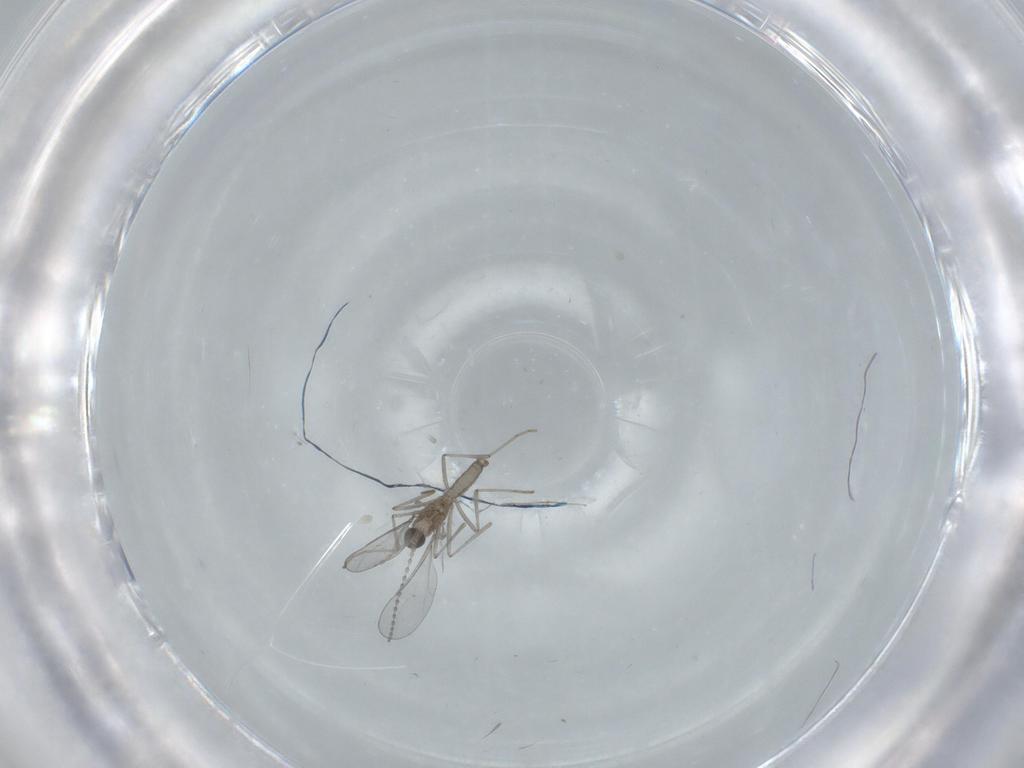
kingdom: Animalia
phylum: Arthropoda
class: Insecta
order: Diptera
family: Cecidomyiidae
